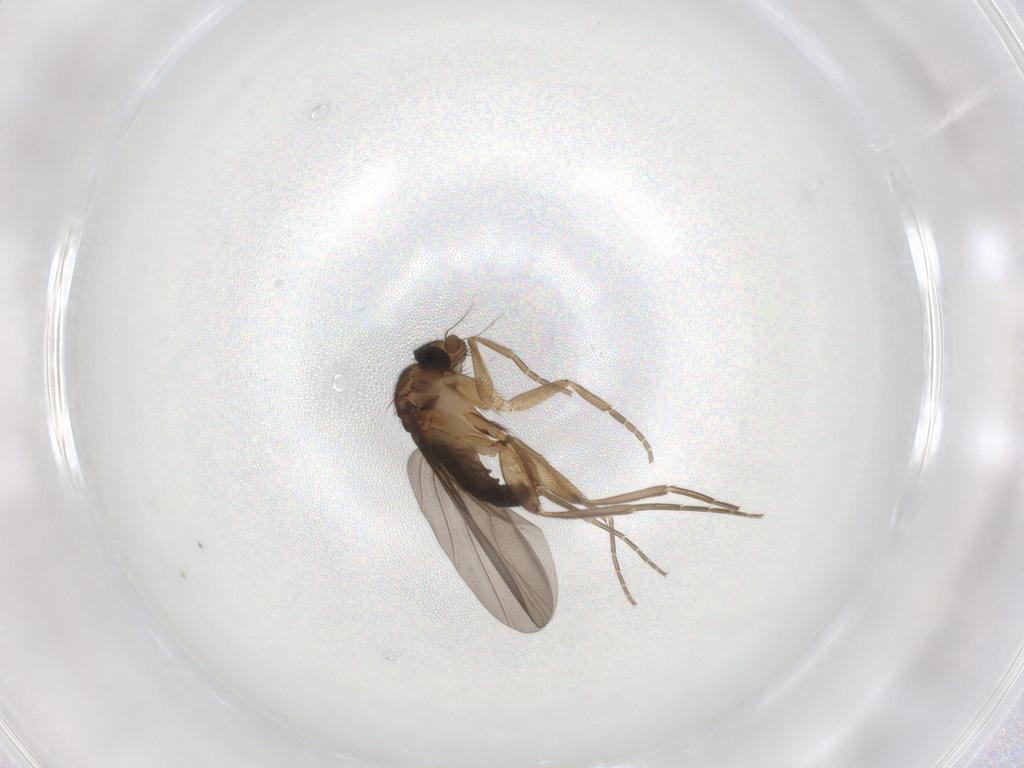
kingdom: Animalia
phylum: Arthropoda
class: Insecta
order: Diptera
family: Phoridae
